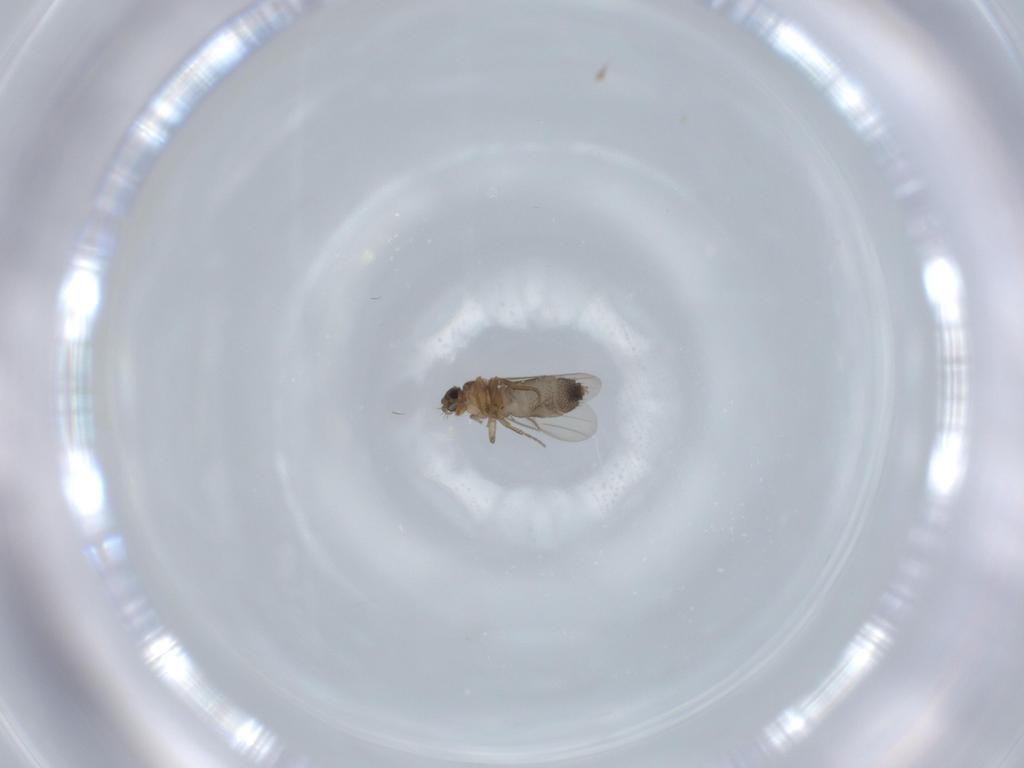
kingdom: Animalia
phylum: Arthropoda
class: Insecta
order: Diptera
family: Phoridae
